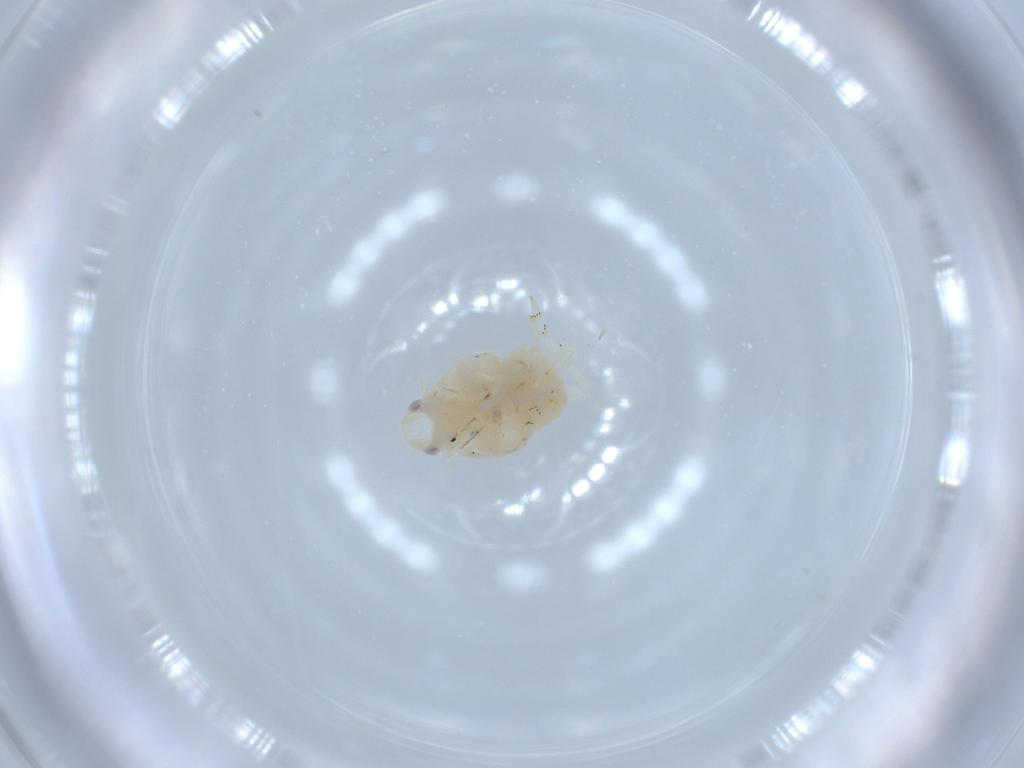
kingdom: Animalia
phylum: Arthropoda
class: Insecta
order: Hemiptera
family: Flatidae
